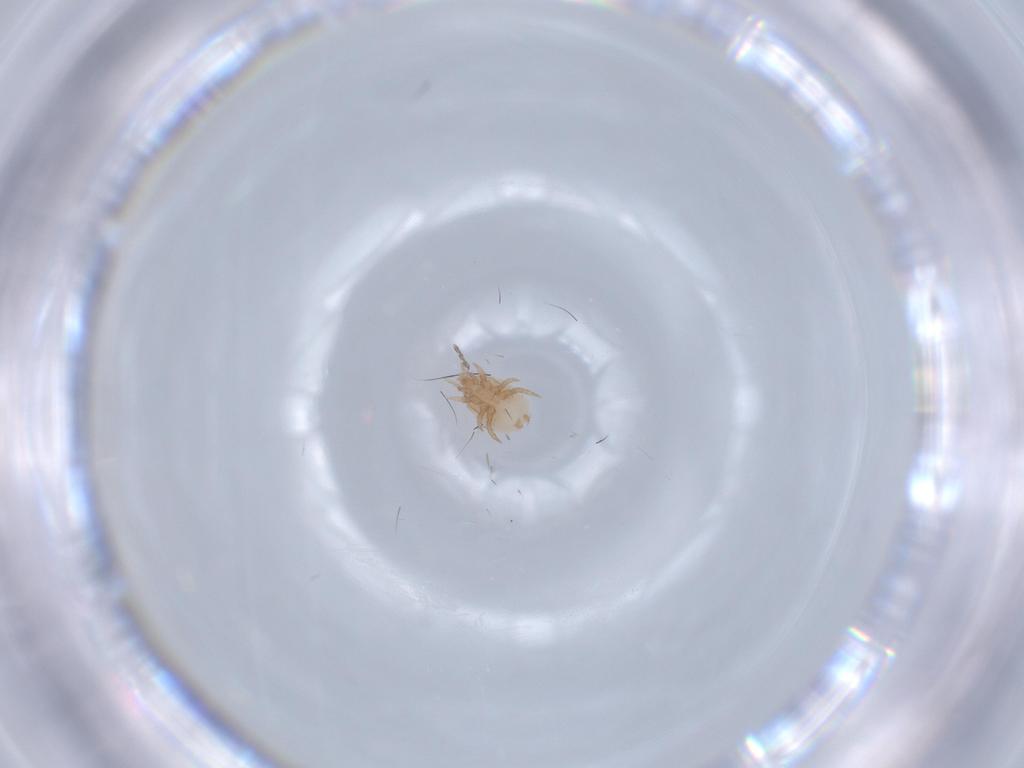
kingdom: Animalia
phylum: Arthropoda
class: Arachnida
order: Mesostigmata
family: Halolaelapidae
